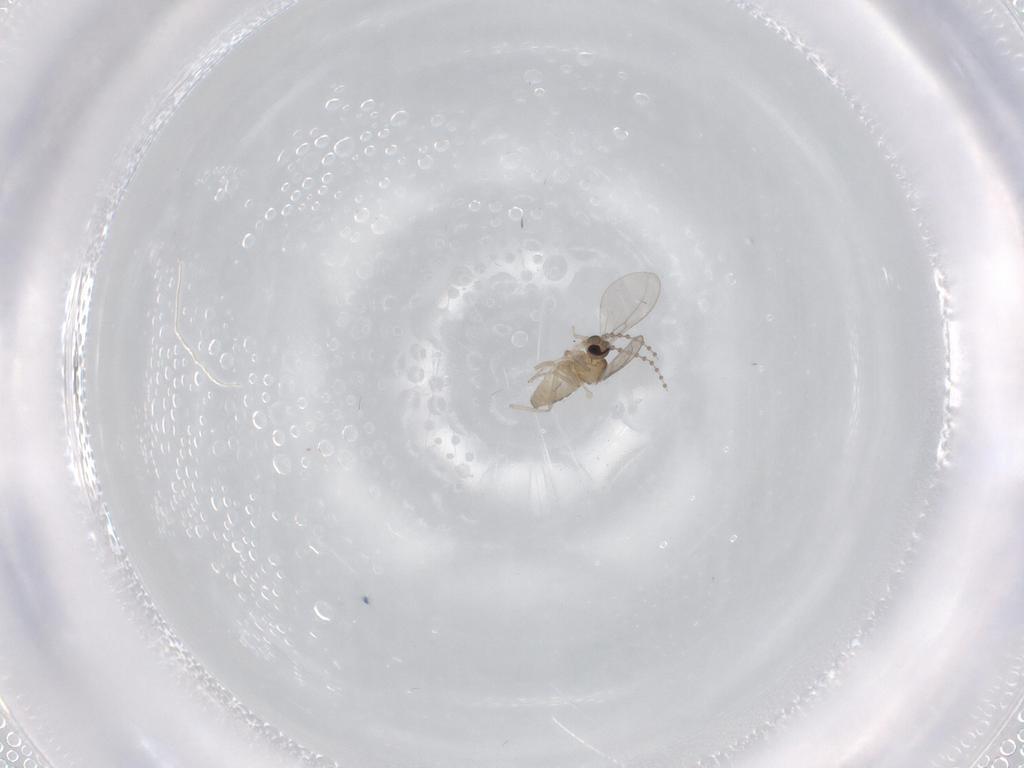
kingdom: Animalia
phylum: Arthropoda
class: Insecta
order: Diptera
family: Cecidomyiidae
